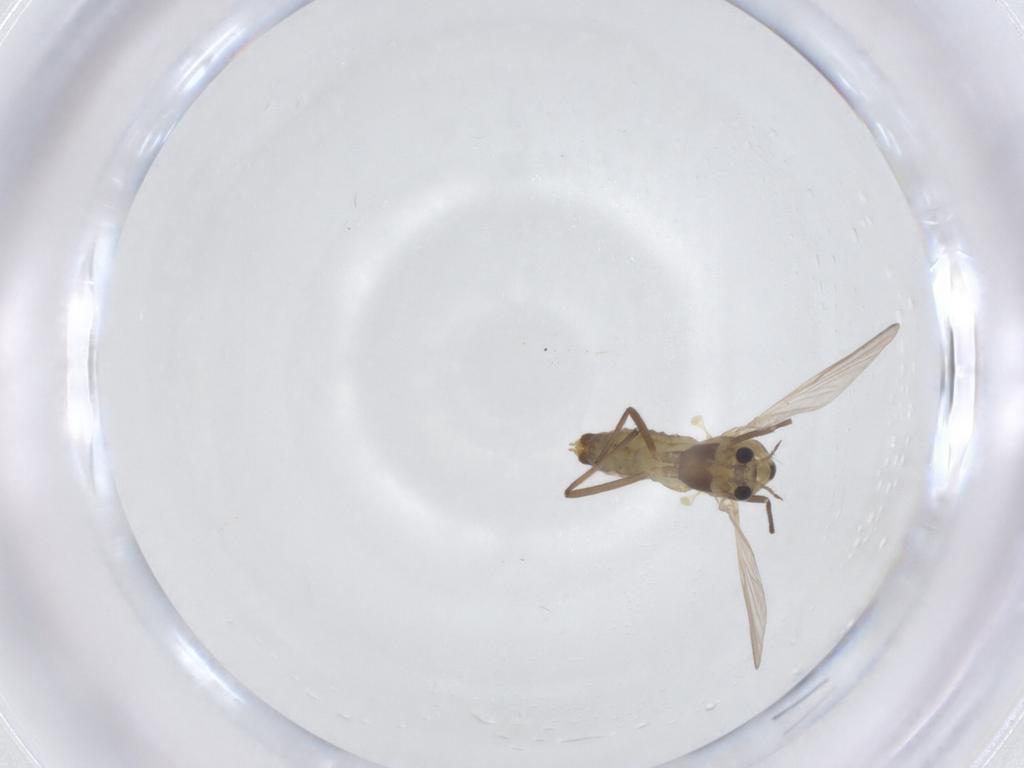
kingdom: Animalia
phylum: Arthropoda
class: Insecta
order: Diptera
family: Chironomidae
